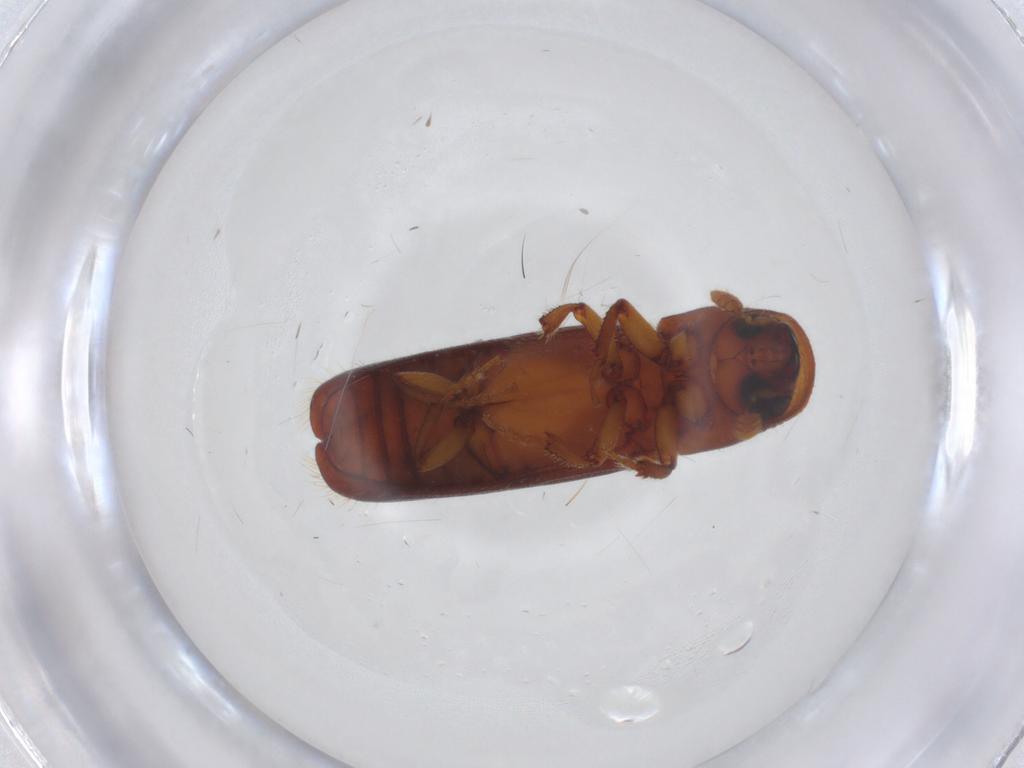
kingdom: Animalia
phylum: Arthropoda
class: Insecta
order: Coleoptera
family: Curculionidae
